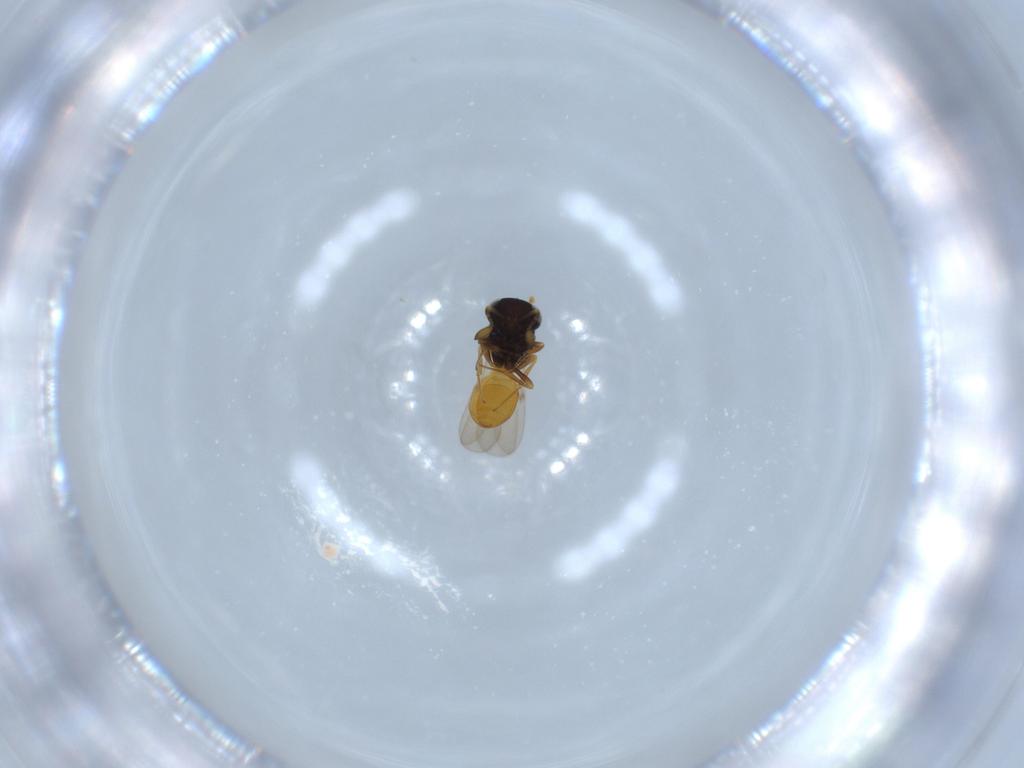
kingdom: Animalia
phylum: Arthropoda
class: Insecta
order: Hymenoptera
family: Scelionidae
